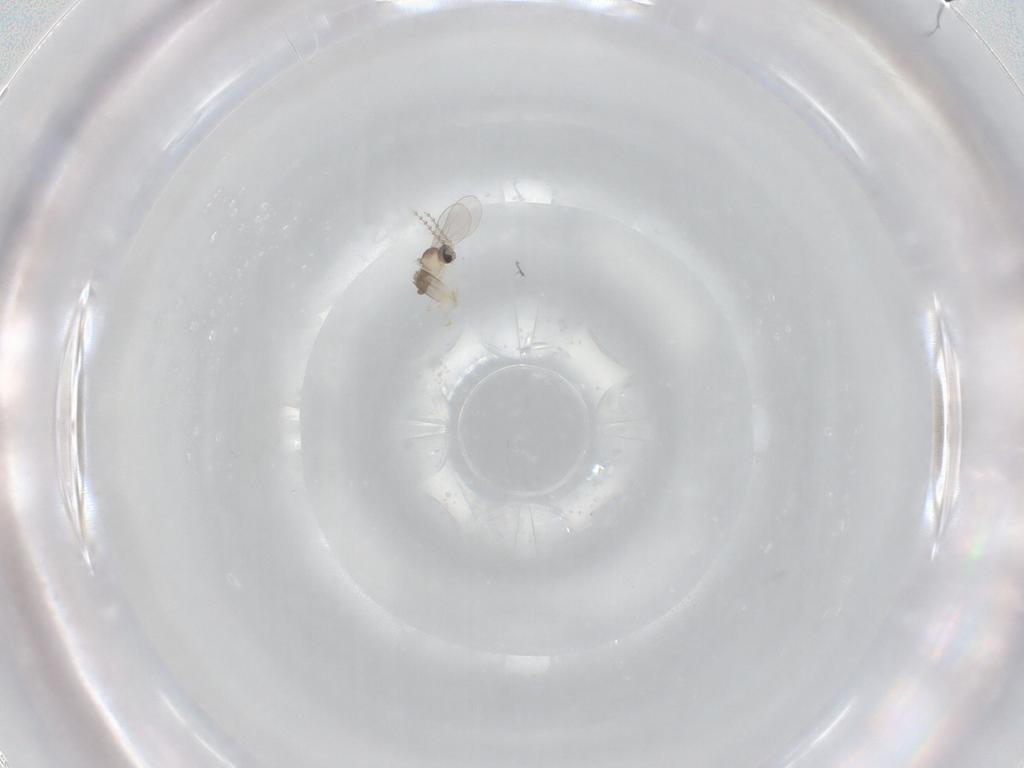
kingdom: Animalia
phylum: Arthropoda
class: Insecta
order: Diptera
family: Cecidomyiidae
